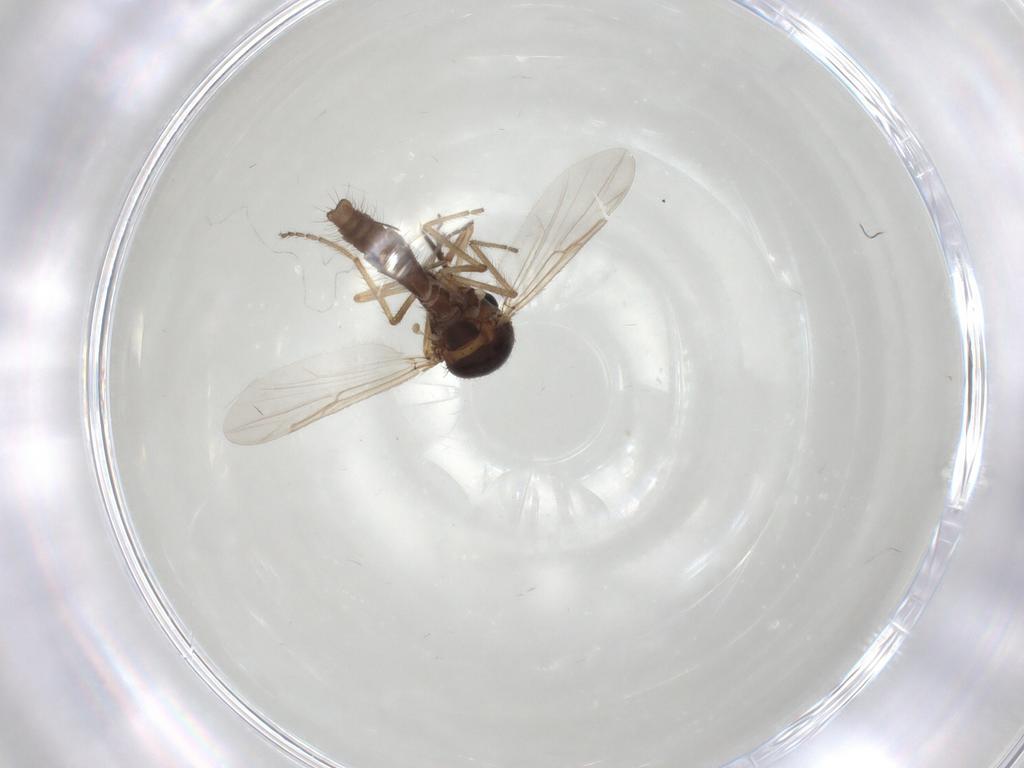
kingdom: Animalia
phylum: Arthropoda
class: Insecta
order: Diptera
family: Ceratopogonidae
